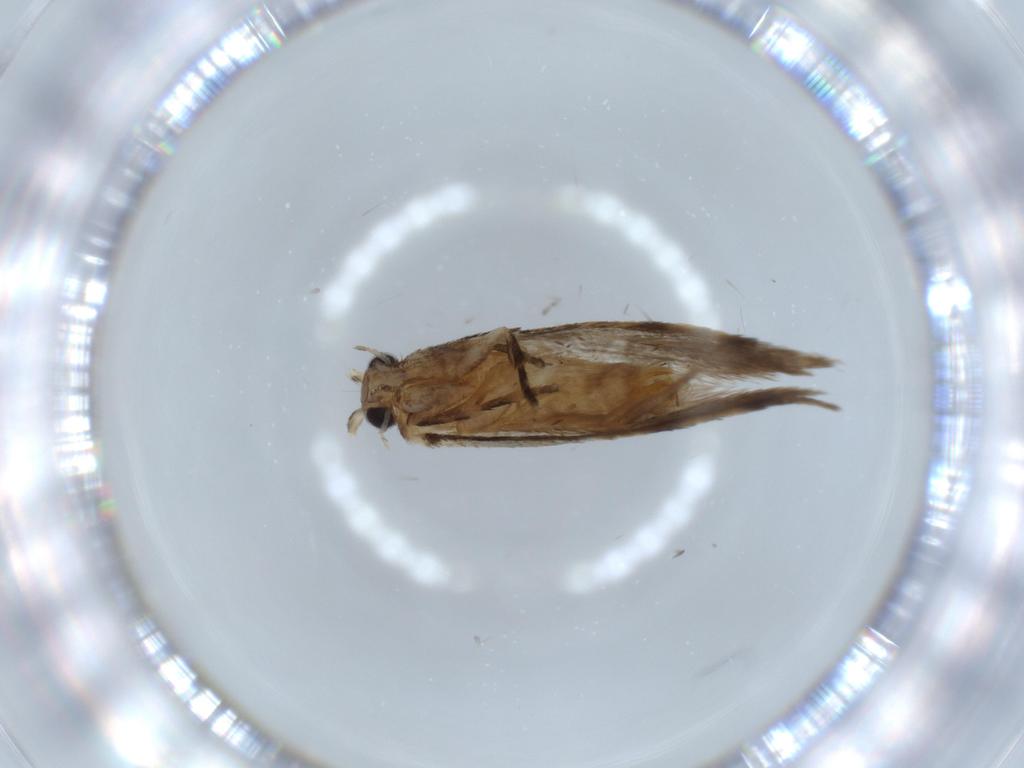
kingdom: Animalia
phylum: Arthropoda
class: Insecta
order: Lepidoptera
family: Tineidae
